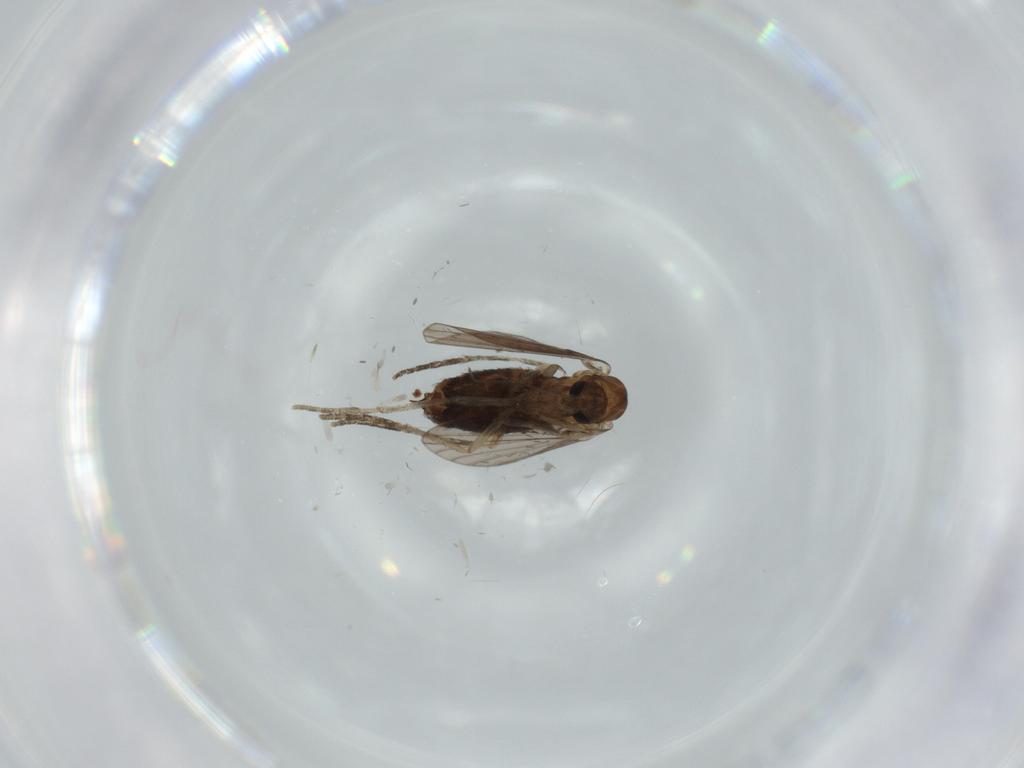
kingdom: Animalia
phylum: Arthropoda
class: Insecta
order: Diptera
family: Cecidomyiidae
